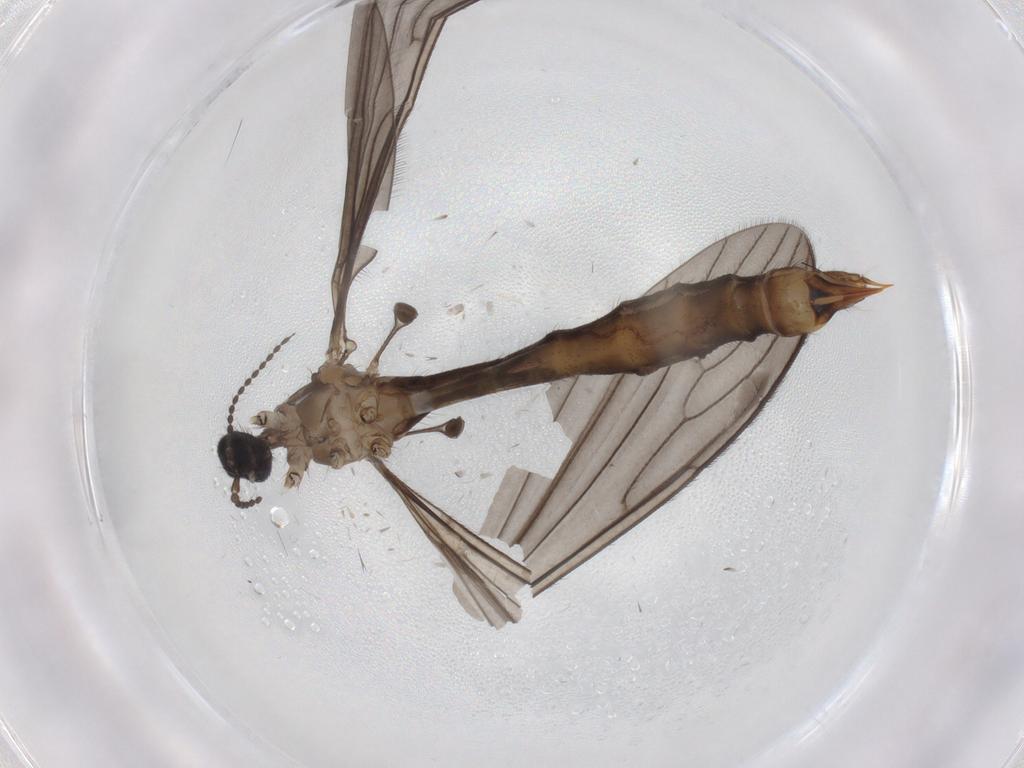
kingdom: Animalia
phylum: Arthropoda
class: Insecta
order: Diptera
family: Limoniidae
